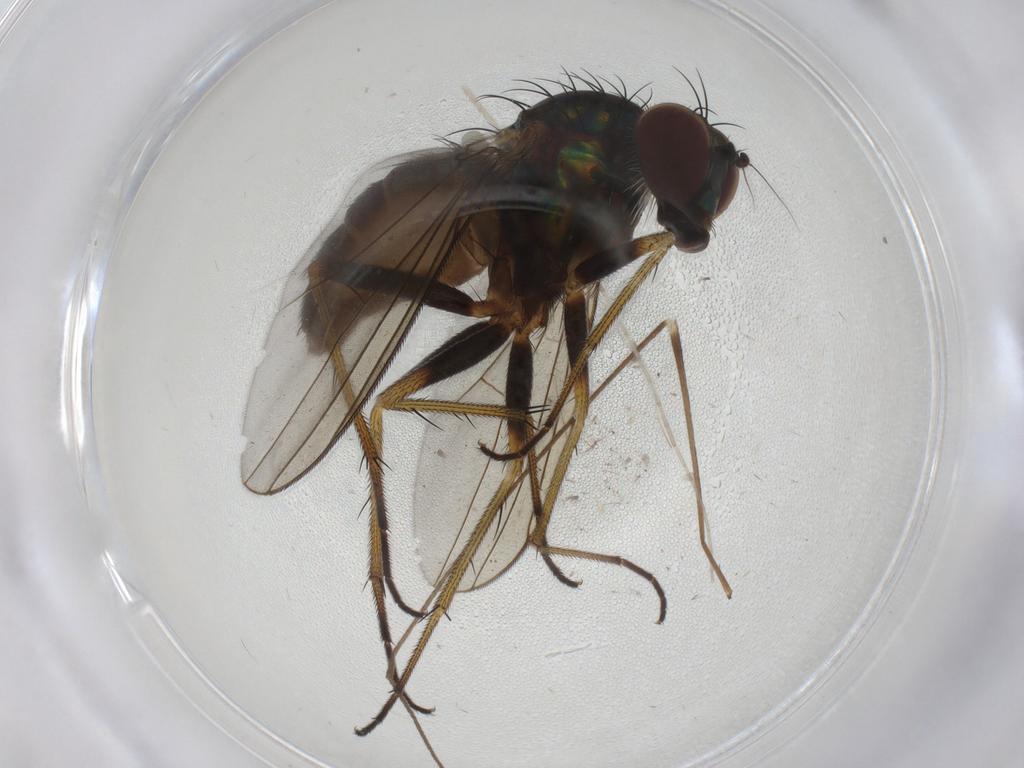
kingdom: Animalia
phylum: Arthropoda
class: Insecta
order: Diptera
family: Dolichopodidae
